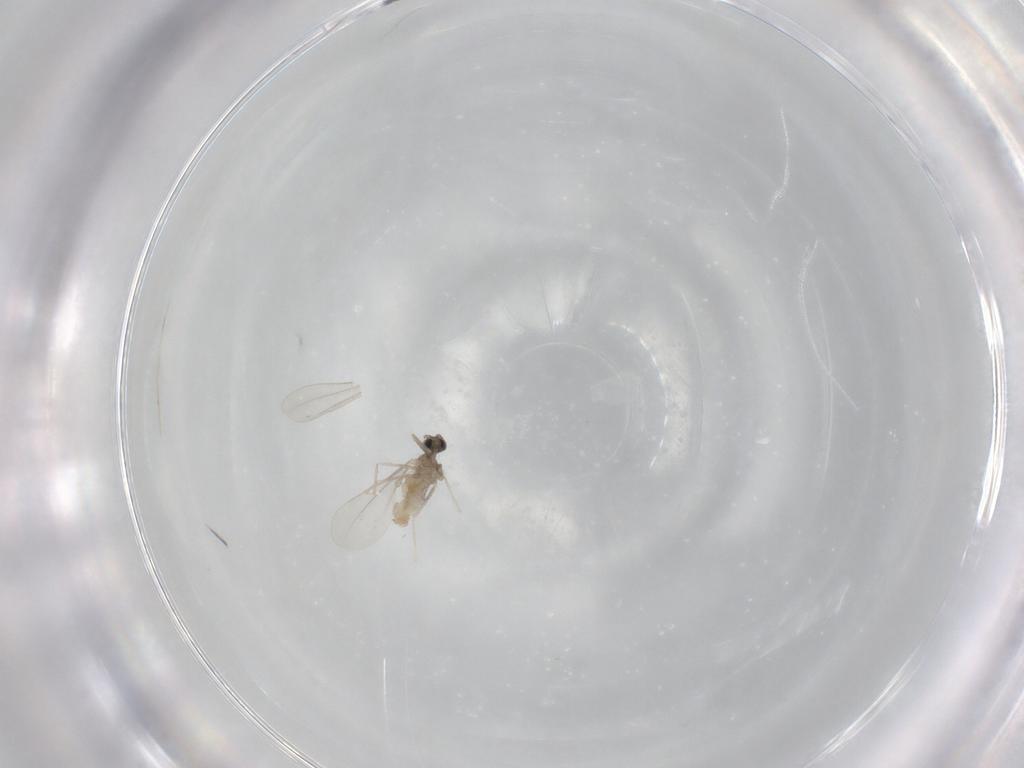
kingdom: Animalia
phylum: Arthropoda
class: Insecta
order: Diptera
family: Cecidomyiidae
